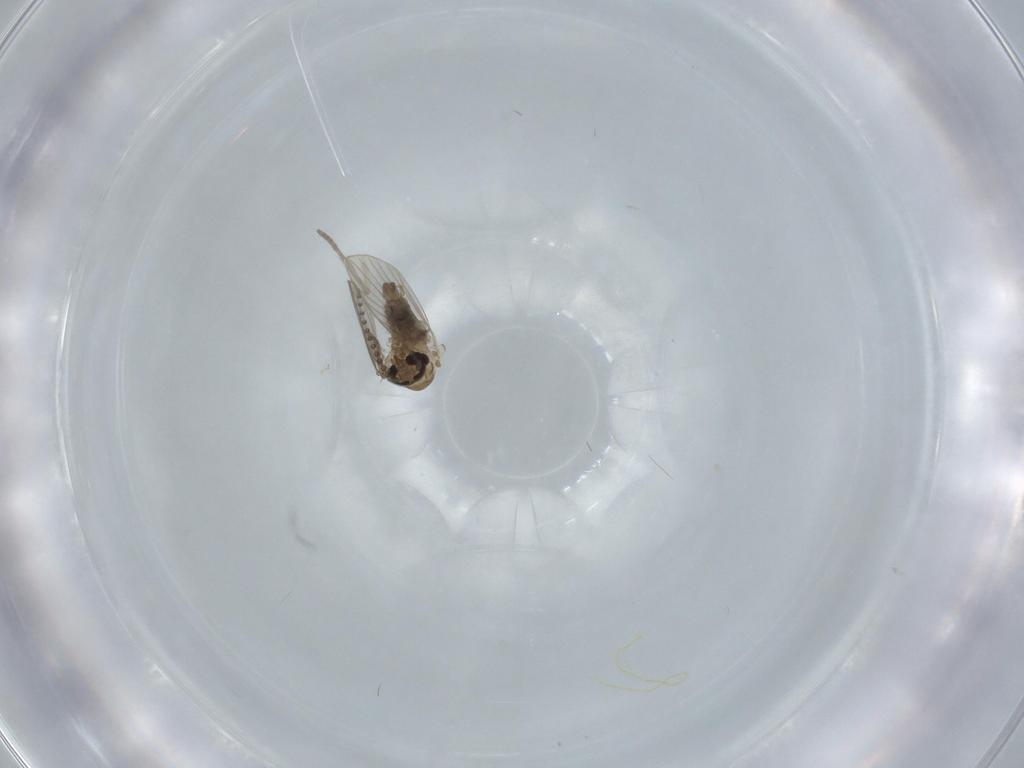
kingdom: Animalia
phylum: Arthropoda
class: Insecta
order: Diptera
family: Psychodidae
